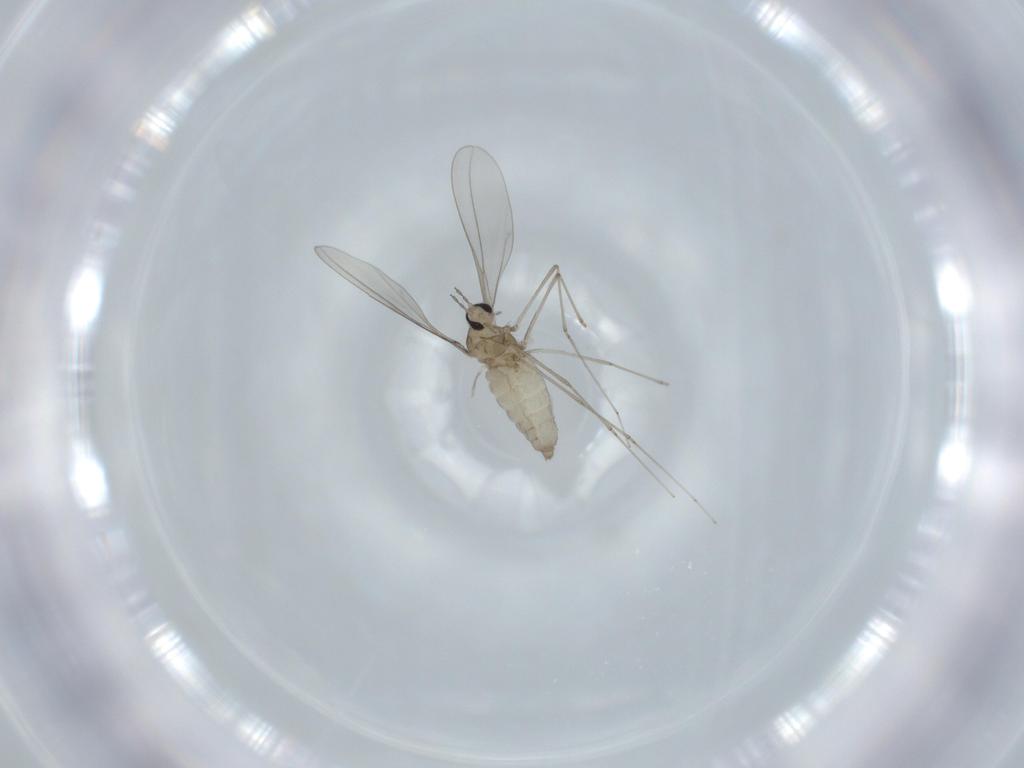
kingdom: Animalia
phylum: Arthropoda
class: Insecta
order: Diptera
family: Cecidomyiidae
